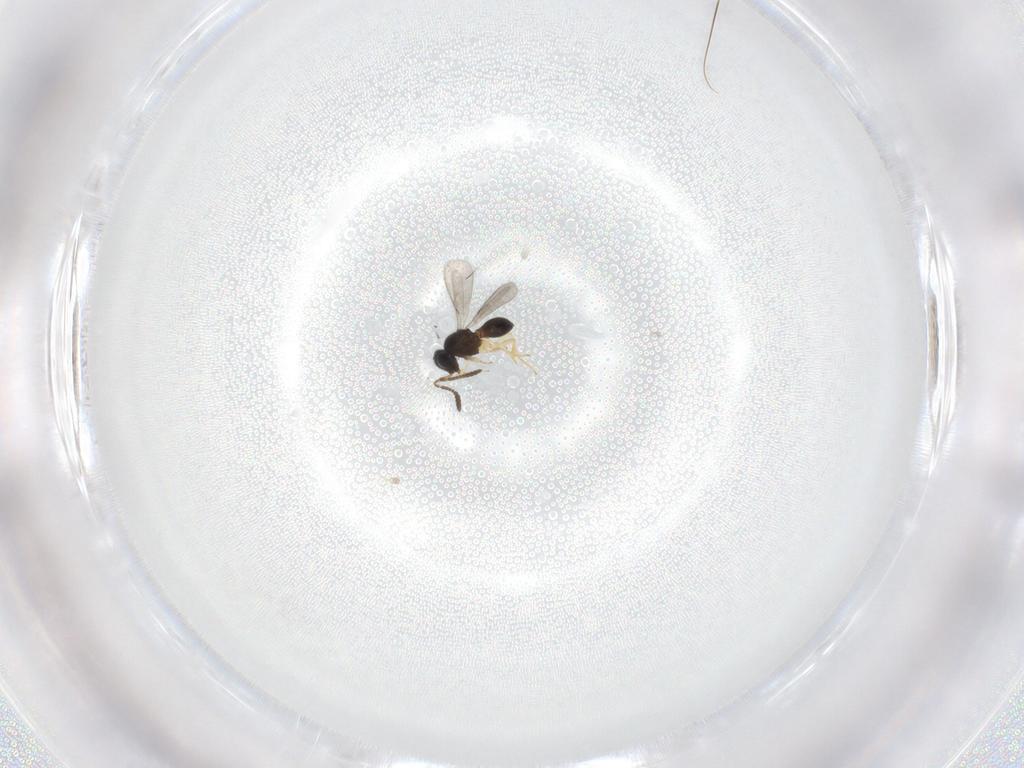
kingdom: Animalia
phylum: Arthropoda
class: Insecta
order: Hymenoptera
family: Scelionidae
